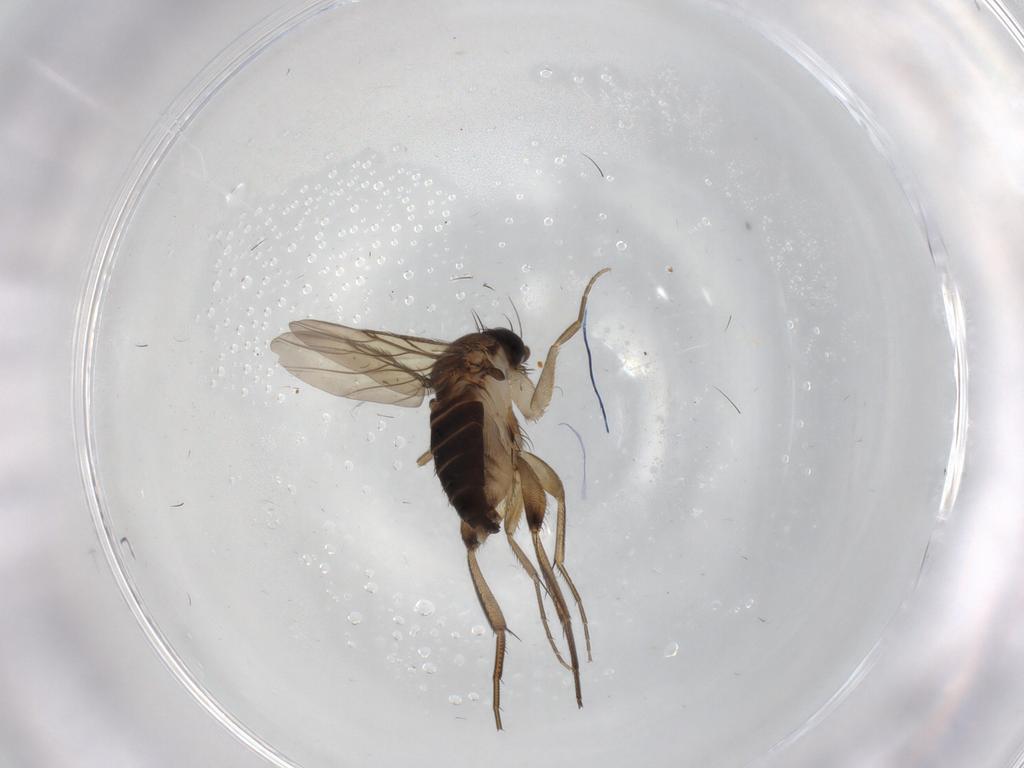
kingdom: Animalia
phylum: Arthropoda
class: Insecta
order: Diptera
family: Phoridae
